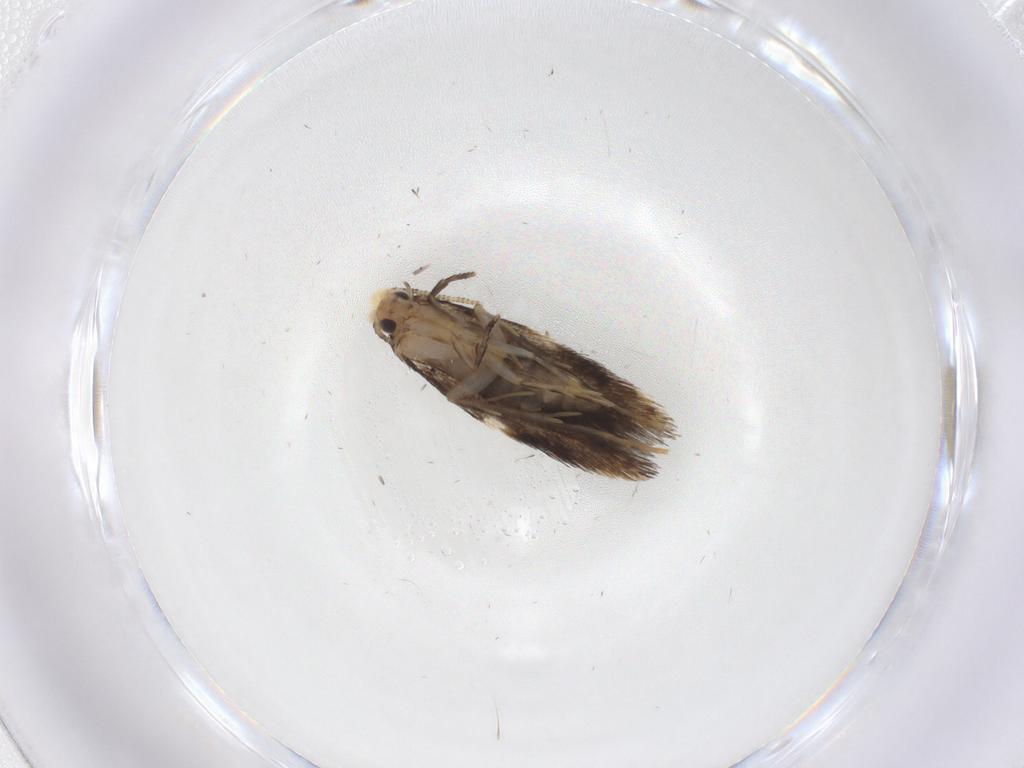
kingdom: Animalia
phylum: Arthropoda
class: Insecta
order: Lepidoptera
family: Tineidae
